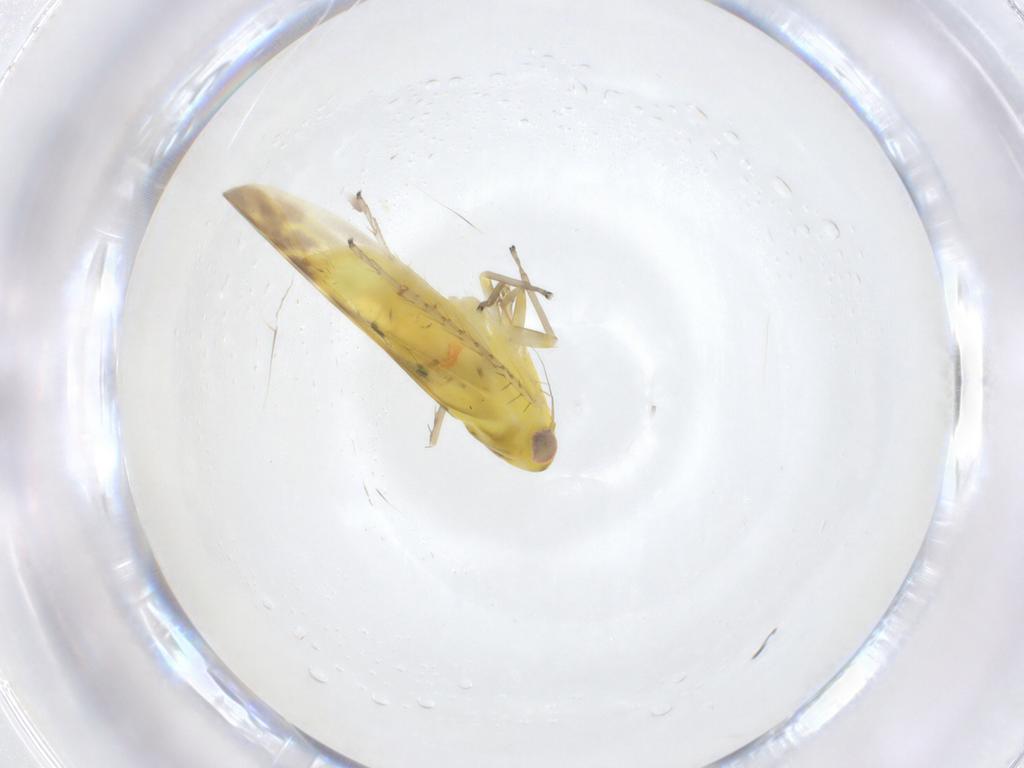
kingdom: Animalia
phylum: Arthropoda
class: Insecta
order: Hemiptera
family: Cicadellidae
